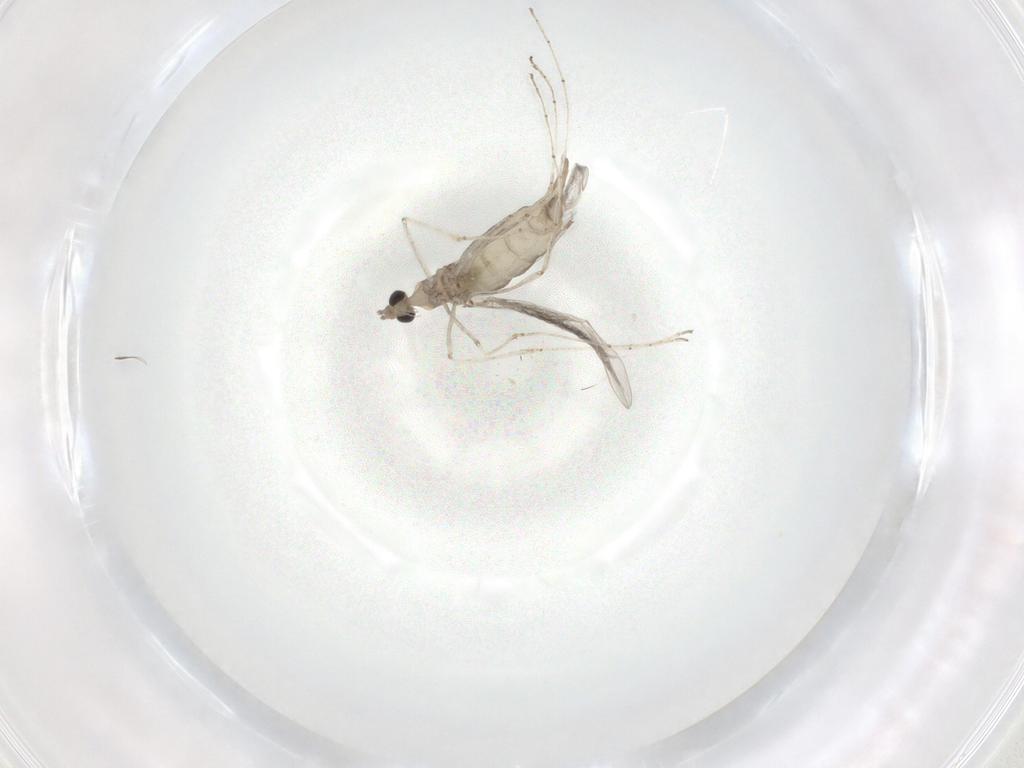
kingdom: Animalia
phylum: Arthropoda
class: Insecta
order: Diptera
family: Cecidomyiidae
